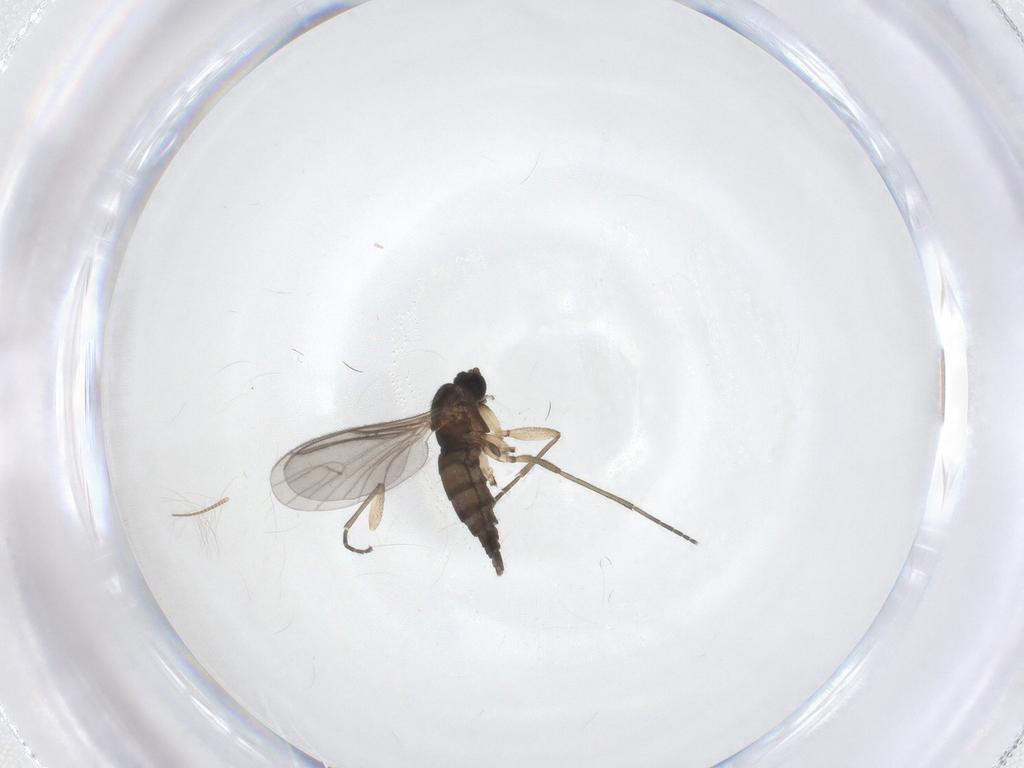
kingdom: Animalia
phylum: Arthropoda
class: Insecta
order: Diptera
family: Sciaridae
